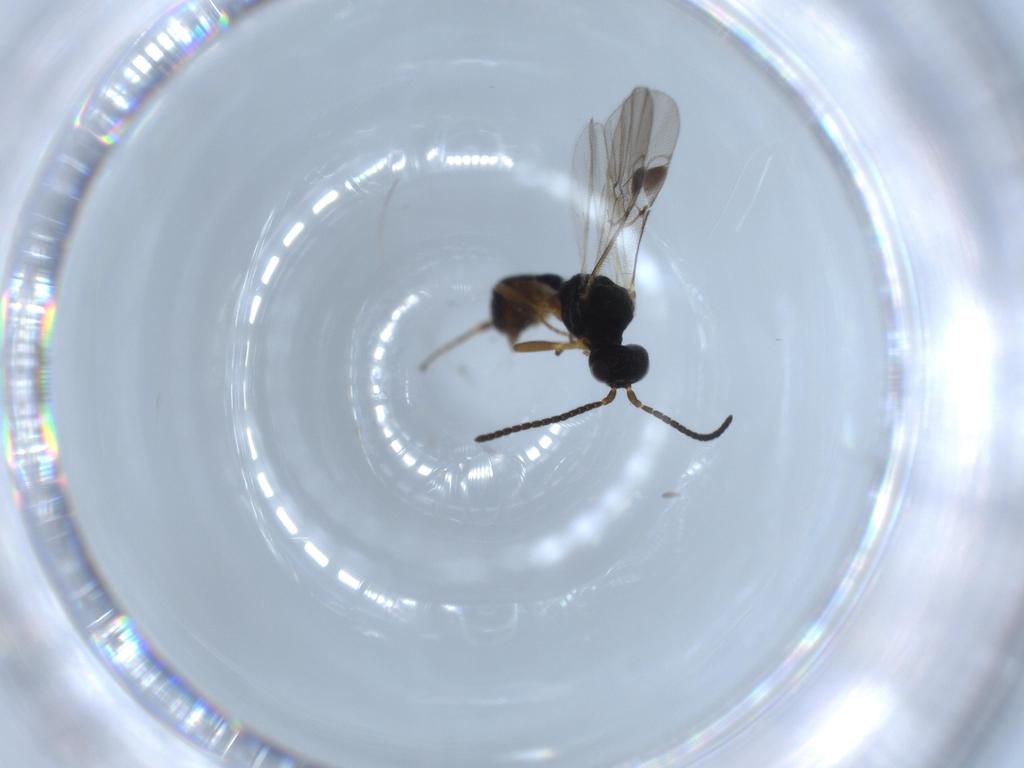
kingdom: Animalia
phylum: Arthropoda
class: Insecta
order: Hymenoptera
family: Braconidae
